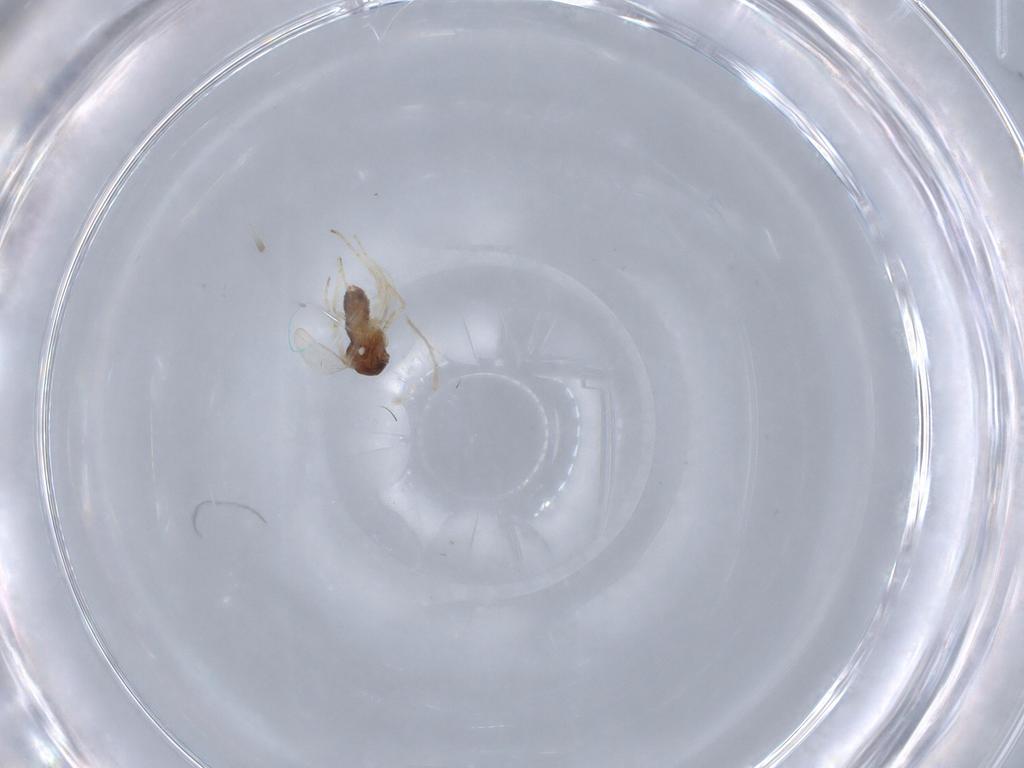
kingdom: Animalia
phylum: Arthropoda
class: Insecta
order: Diptera
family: Ceratopogonidae
